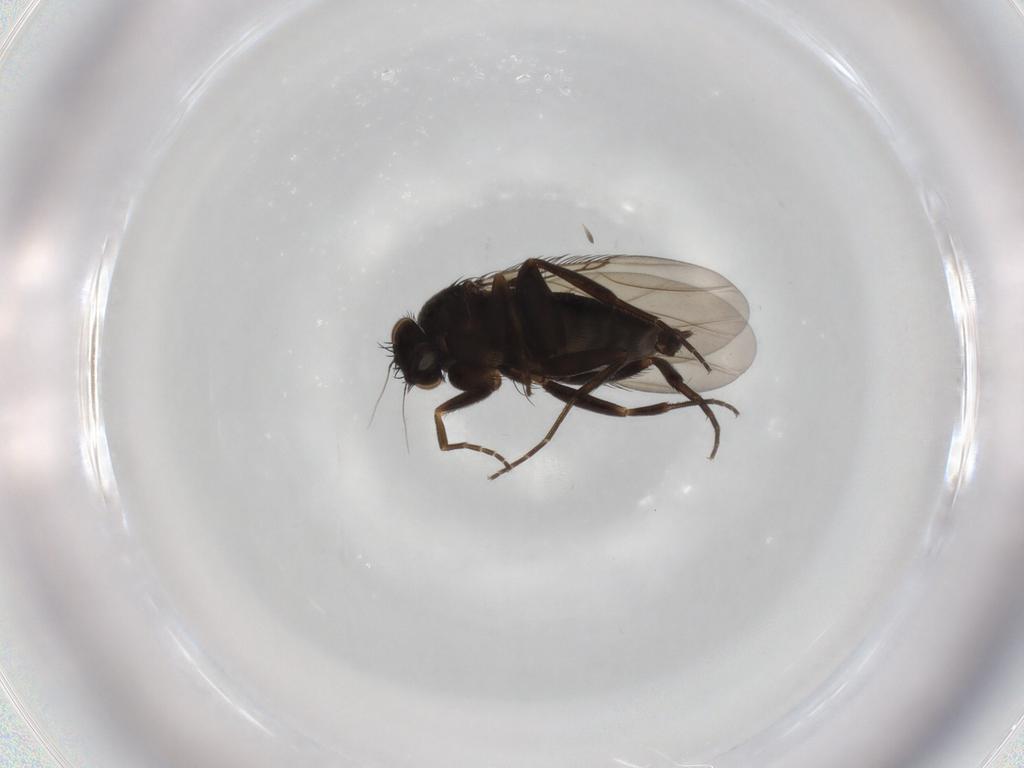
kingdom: Animalia
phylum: Arthropoda
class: Insecta
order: Diptera
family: Phoridae
